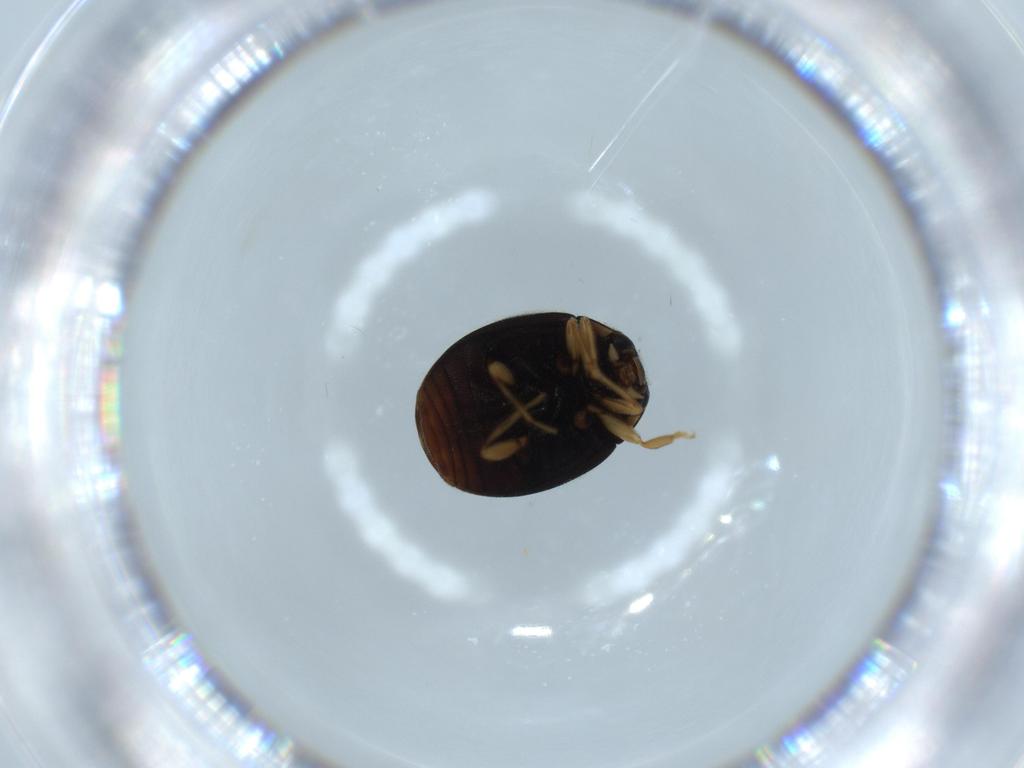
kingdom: Animalia
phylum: Arthropoda
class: Insecta
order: Coleoptera
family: Coccinellidae
